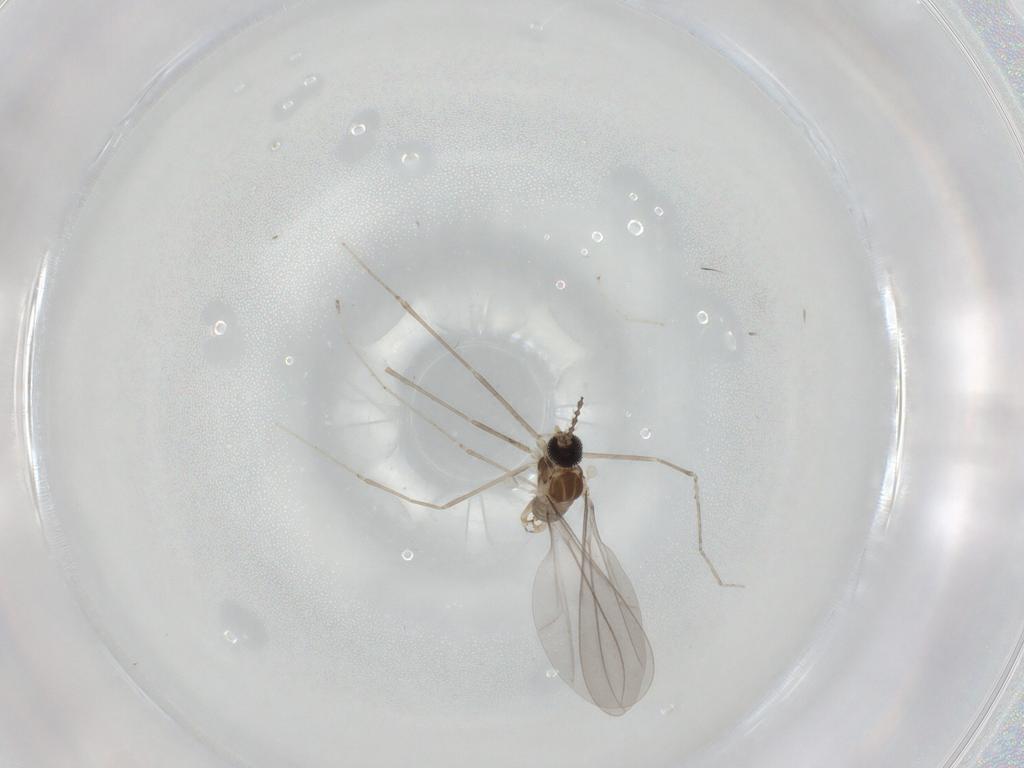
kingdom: Animalia
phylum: Arthropoda
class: Insecta
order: Diptera
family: Cecidomyiidae
